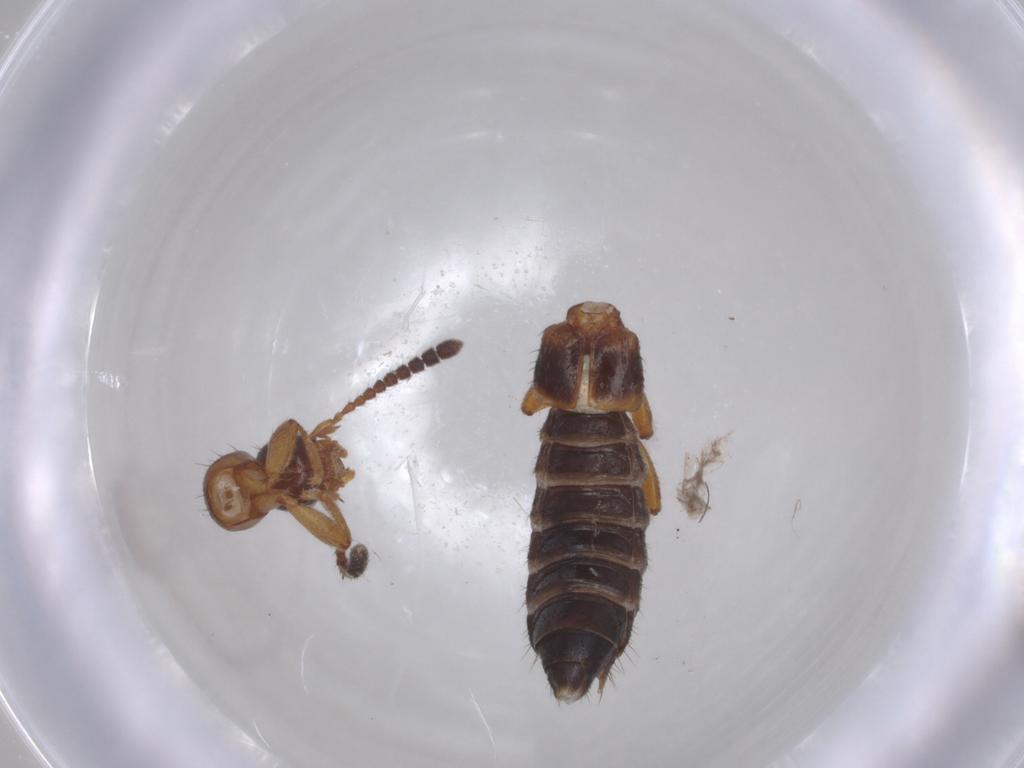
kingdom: Animalia
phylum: Arthropoda
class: Insecta
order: Coleoptera
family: Staphylinidae
